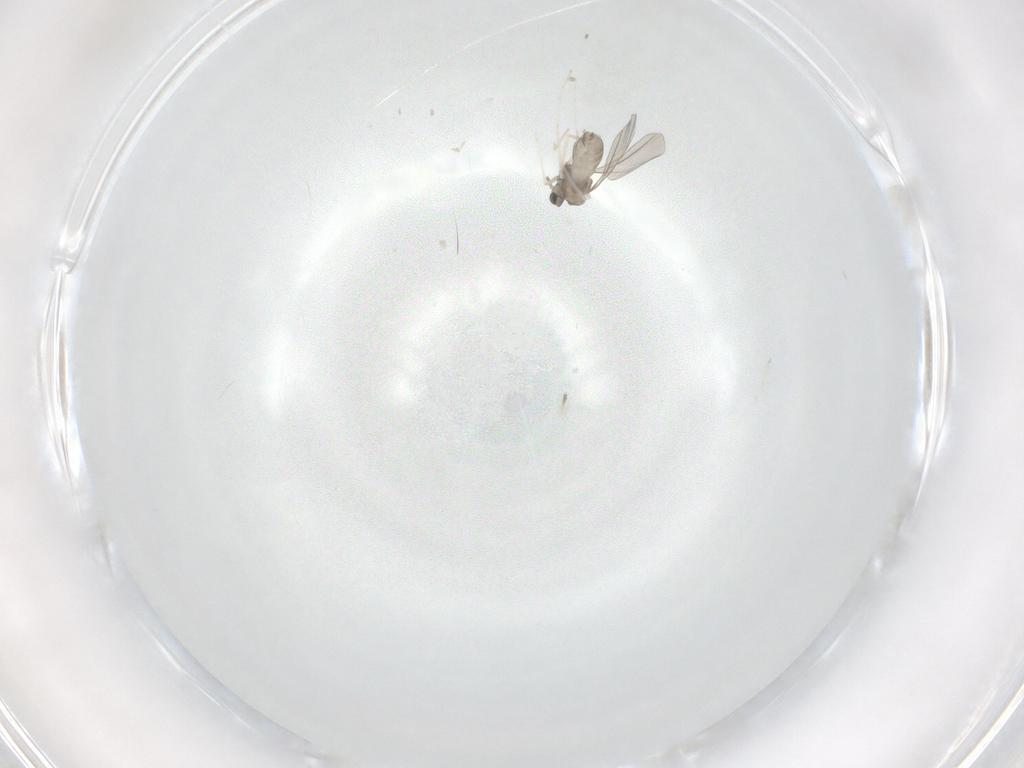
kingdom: Animalia
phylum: Arthropoda
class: Insecta
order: Diptera
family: Cecidomyiidae
